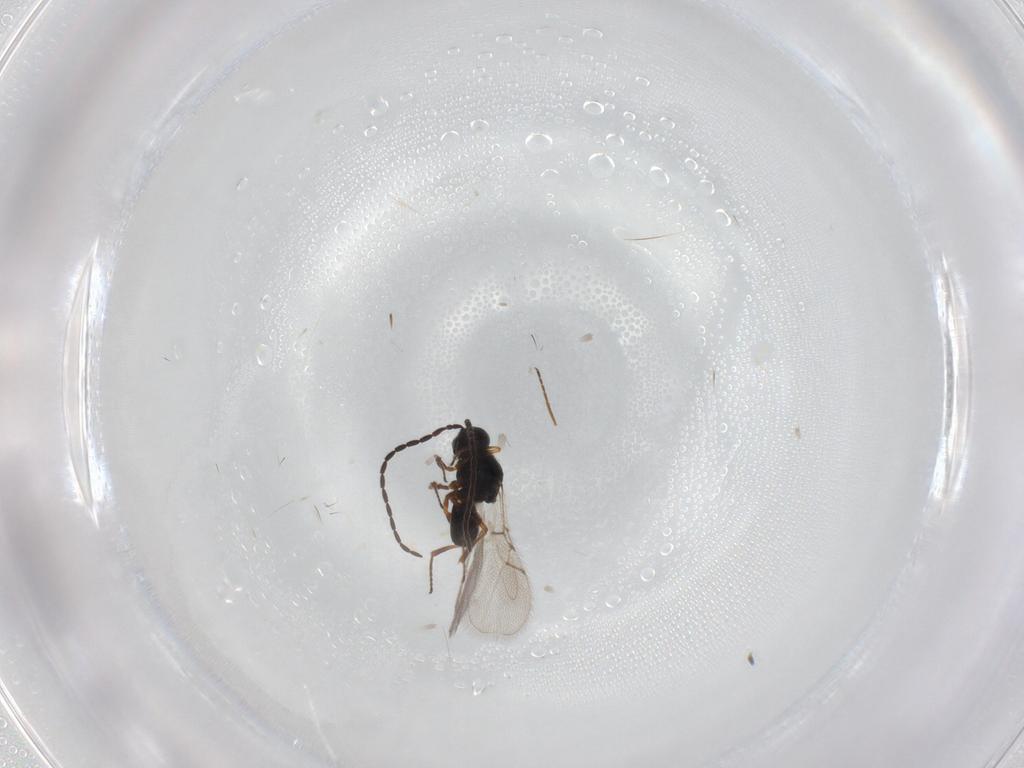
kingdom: Animalia
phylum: Arthropoda
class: Insecta
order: Hymenoptera
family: Figitidae
